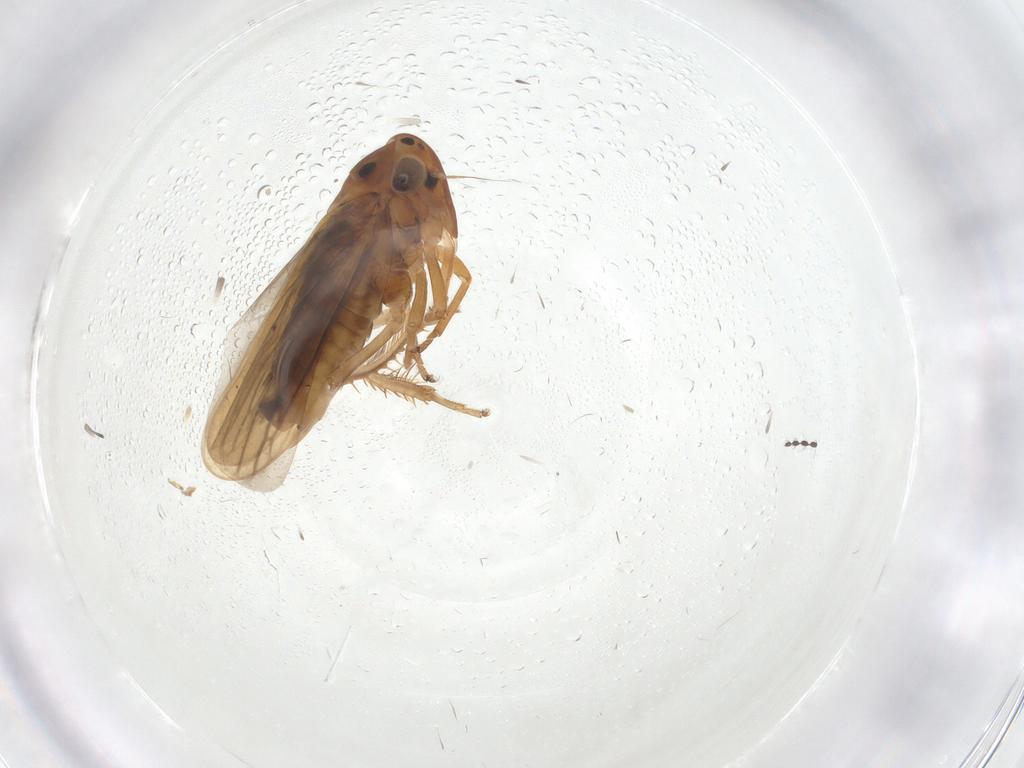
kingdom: Animalia
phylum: Arthropoda
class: Insecta
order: Hemiptera
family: Cicadellidae
